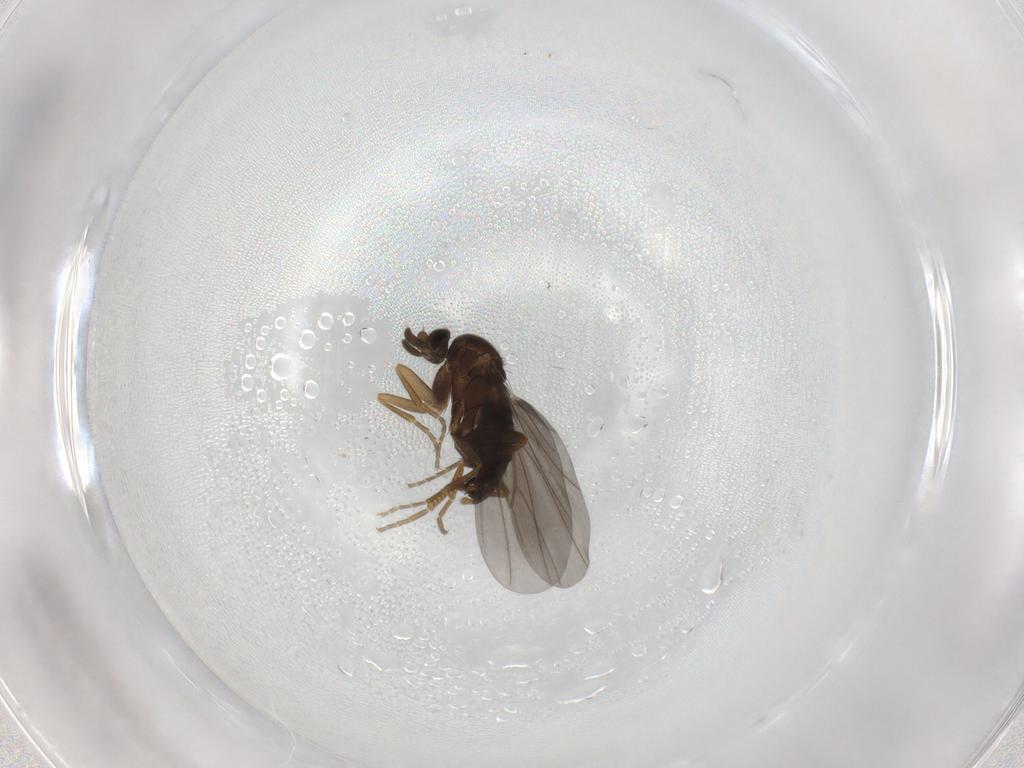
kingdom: Animalia
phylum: Arthropoda
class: Insecta
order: Diptera
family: Phoridae
